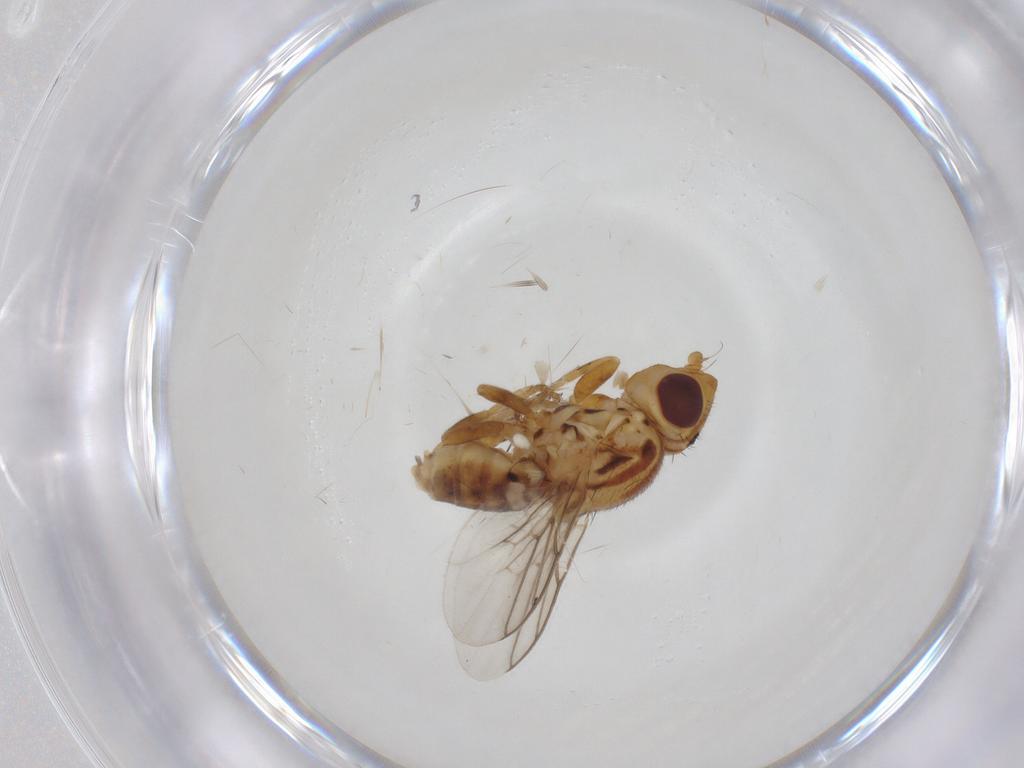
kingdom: Animalia
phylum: Arthropoda
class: Insecta
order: Diptera
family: Chloropidae
